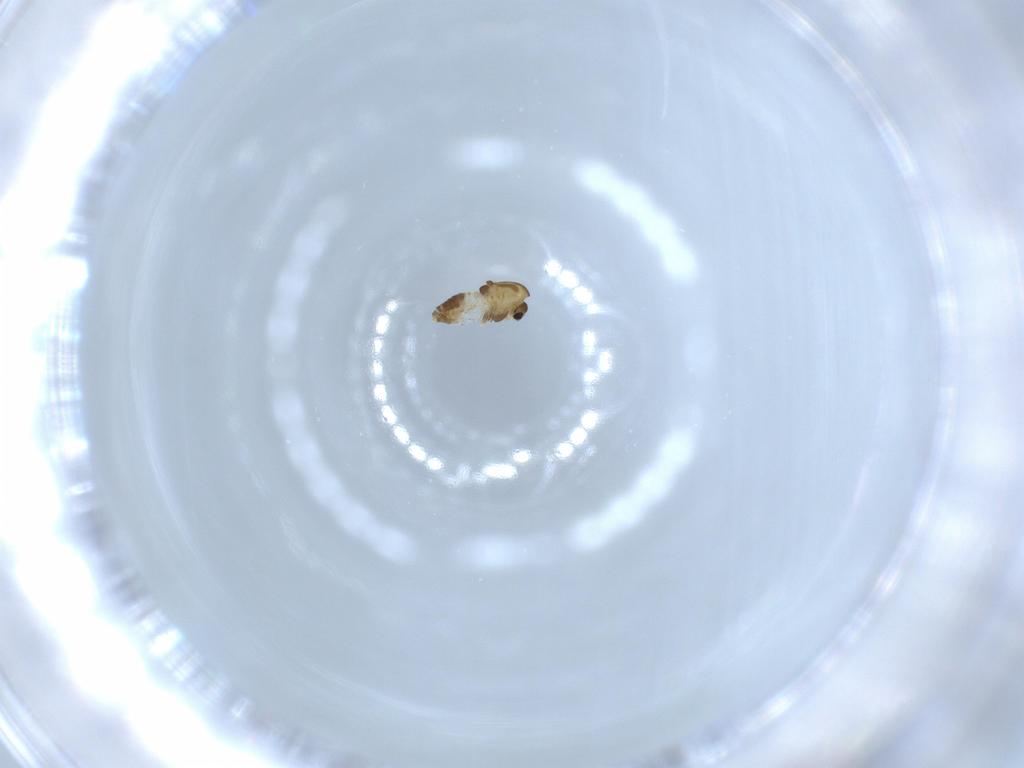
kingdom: Animalia
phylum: Arthropoda
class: Insecta
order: Diptera
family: Chironomidae
